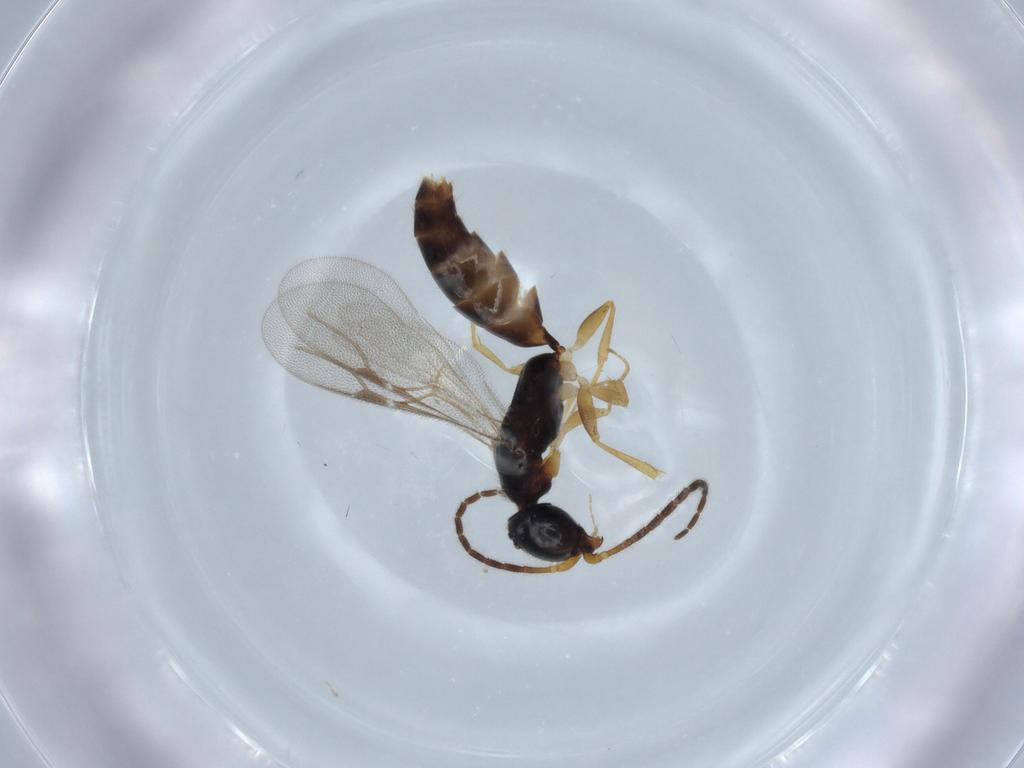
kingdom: Animalia
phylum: Arthropoda
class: Insecta
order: Hymenoptera
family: Bethylidae
